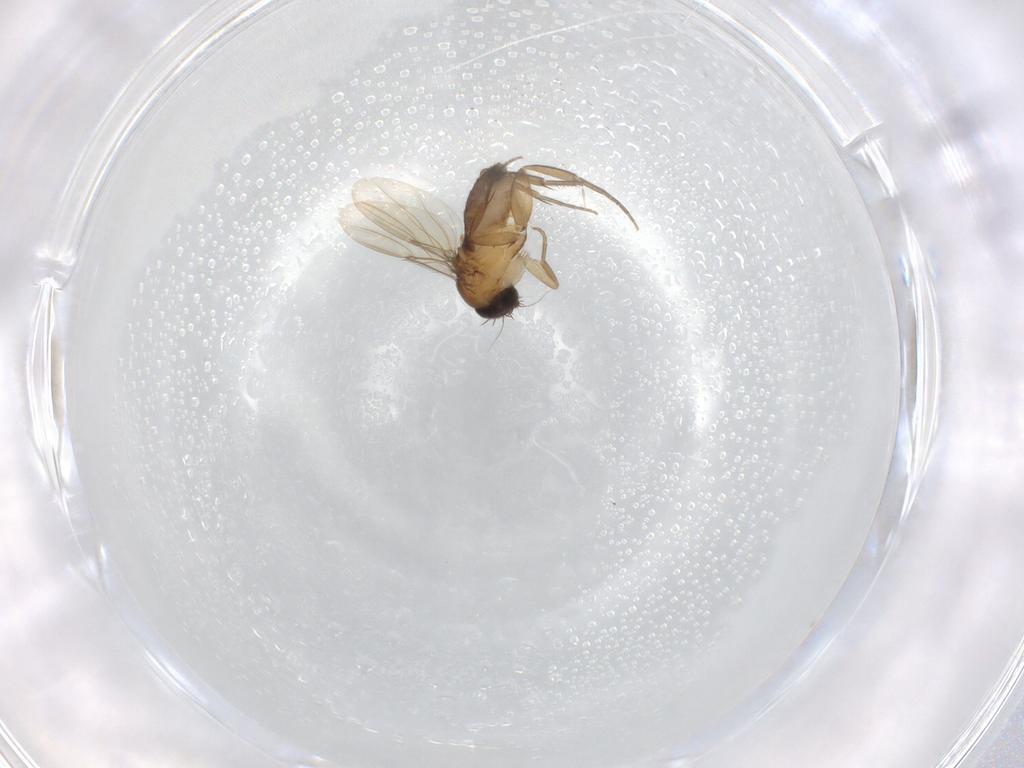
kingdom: Animalia
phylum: Arthropoda
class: Insecta
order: Diptera
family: Phoridae
